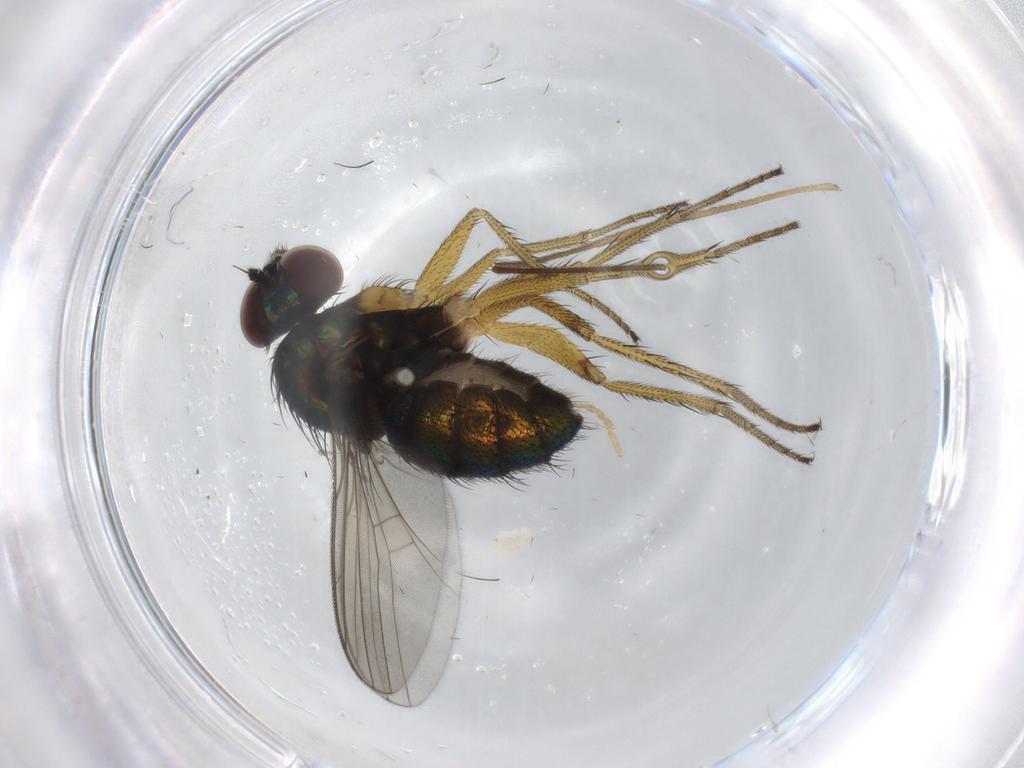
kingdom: Animalia
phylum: Arthropoda
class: Insecta
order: Diptera
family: Dolichopodidae
